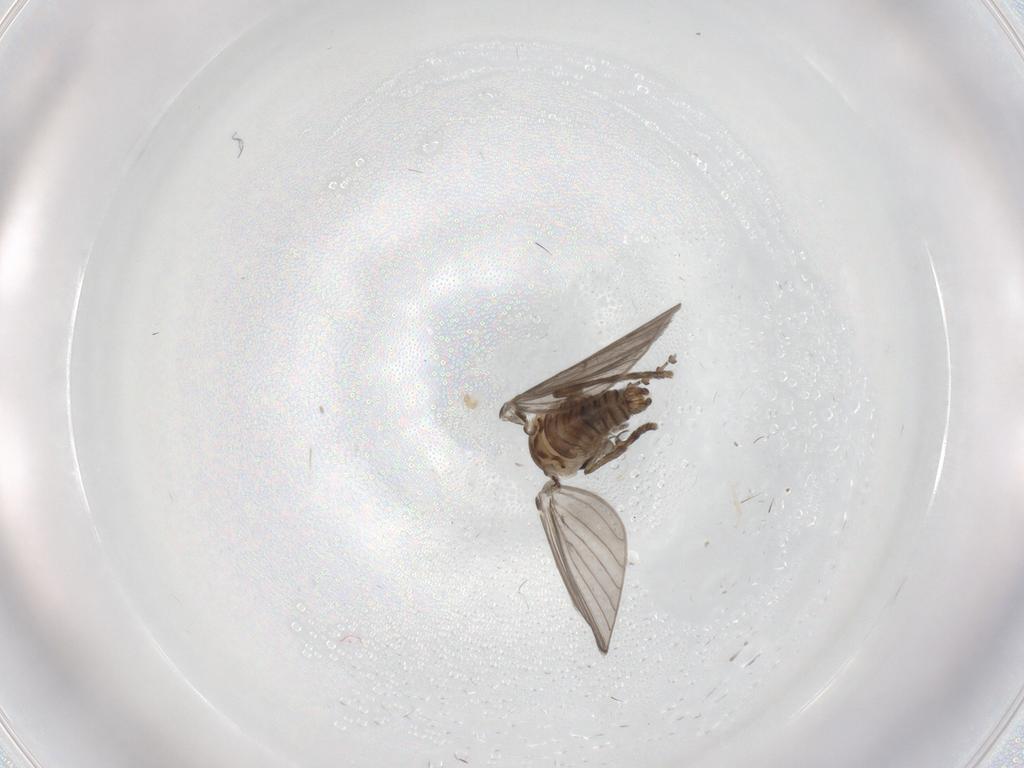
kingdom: Animalia
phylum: Arthropoda
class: Insecta
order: Diptera
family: Psychodidae
